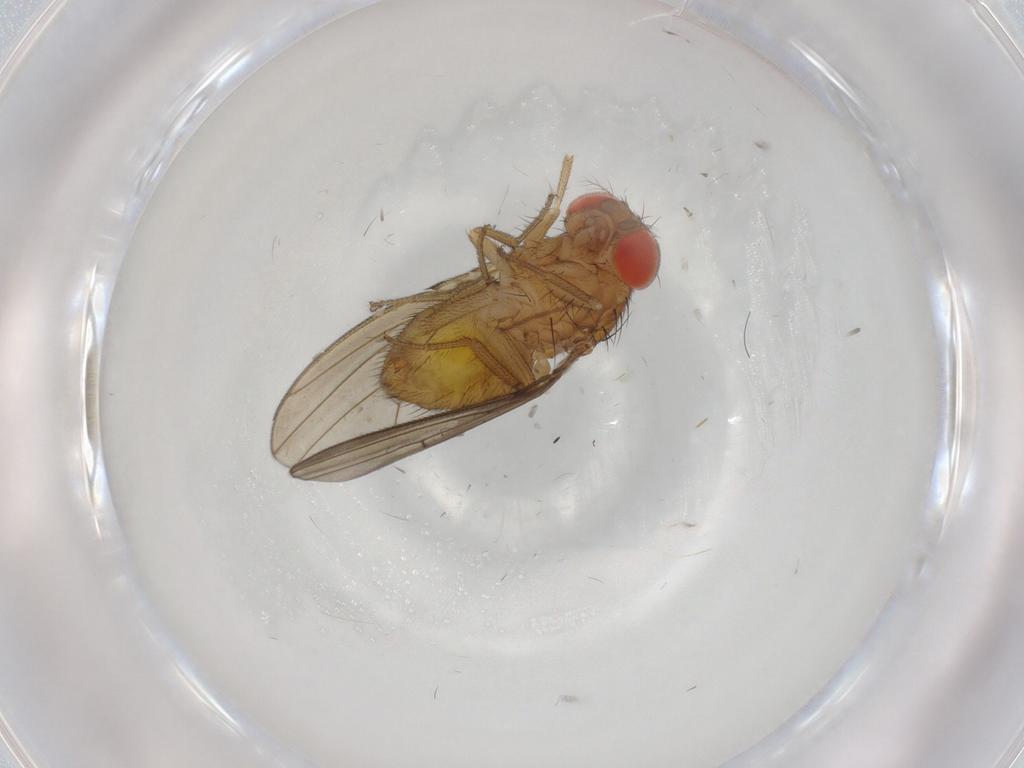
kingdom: Animalia
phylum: Arthropoda
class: Insecta
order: Diptera
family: Drosophilidae
